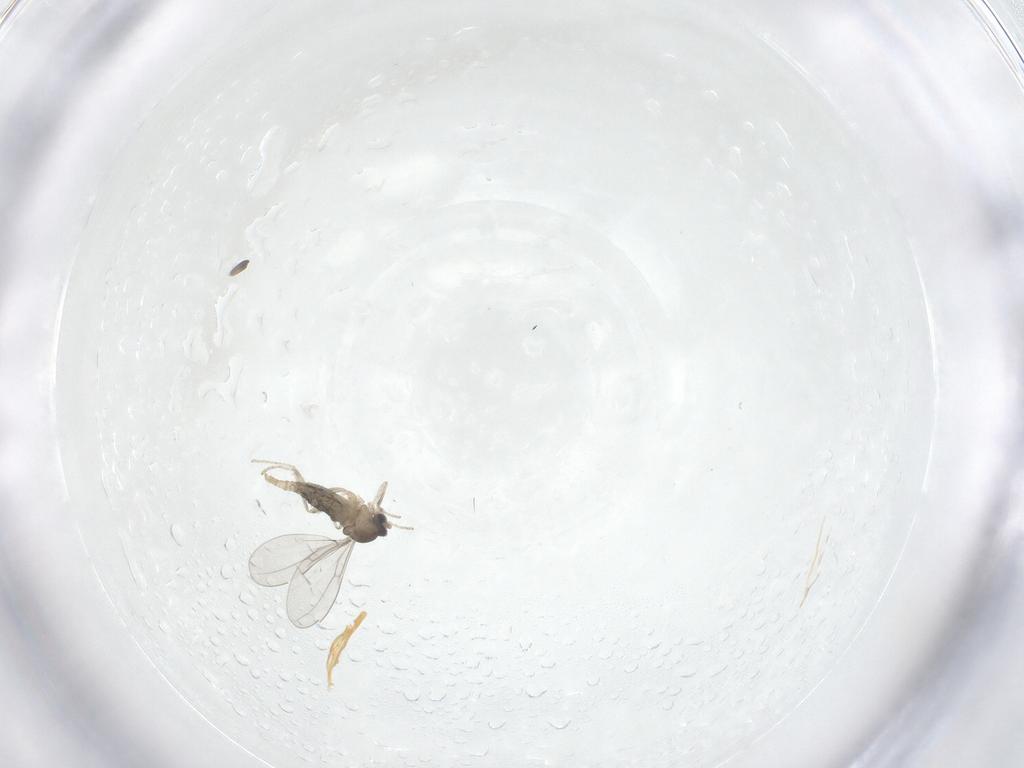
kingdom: Animalia
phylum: Arthropoda
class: Insecta
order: Diptera
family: Cecidomyiidae
